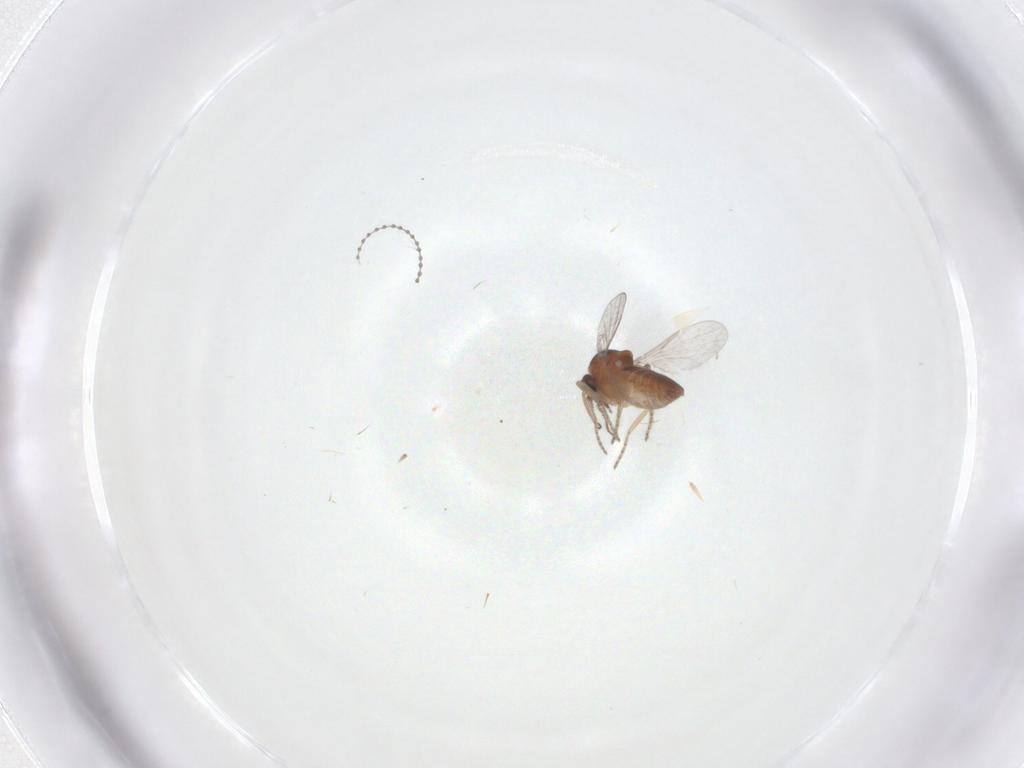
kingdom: Animalia
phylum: Arthropoda
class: Insecta
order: Diptera
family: Ceratopogonidae
